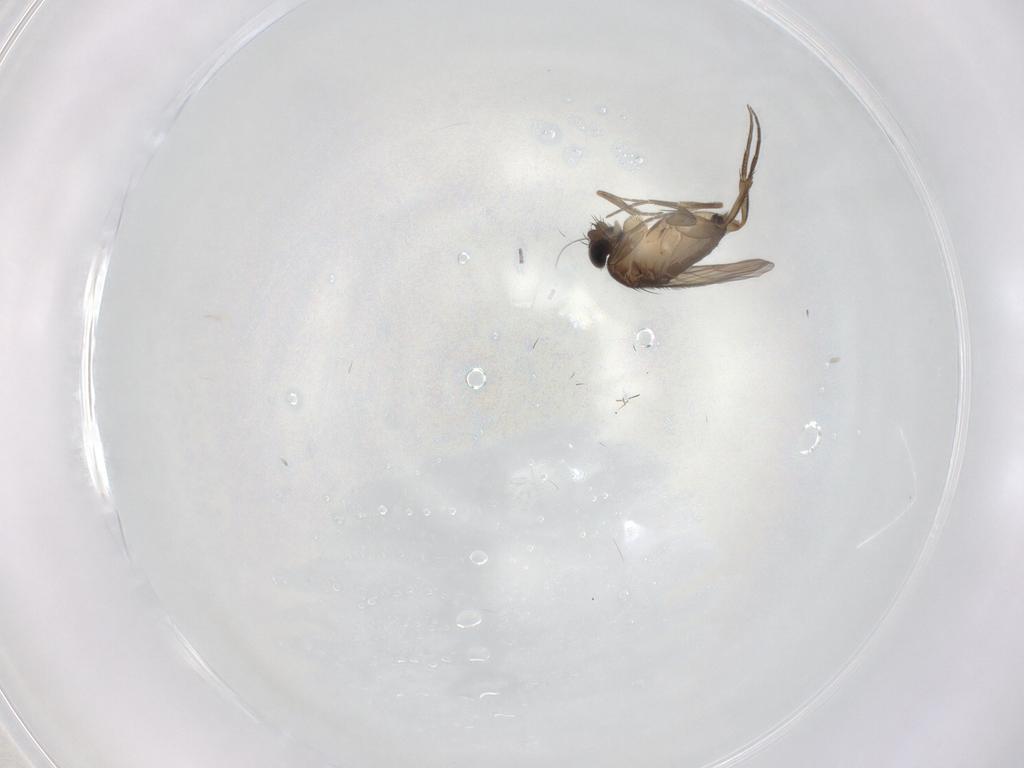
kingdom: Animalia
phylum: Arthropoda
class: Insecta
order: Diptera
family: Phoridae
